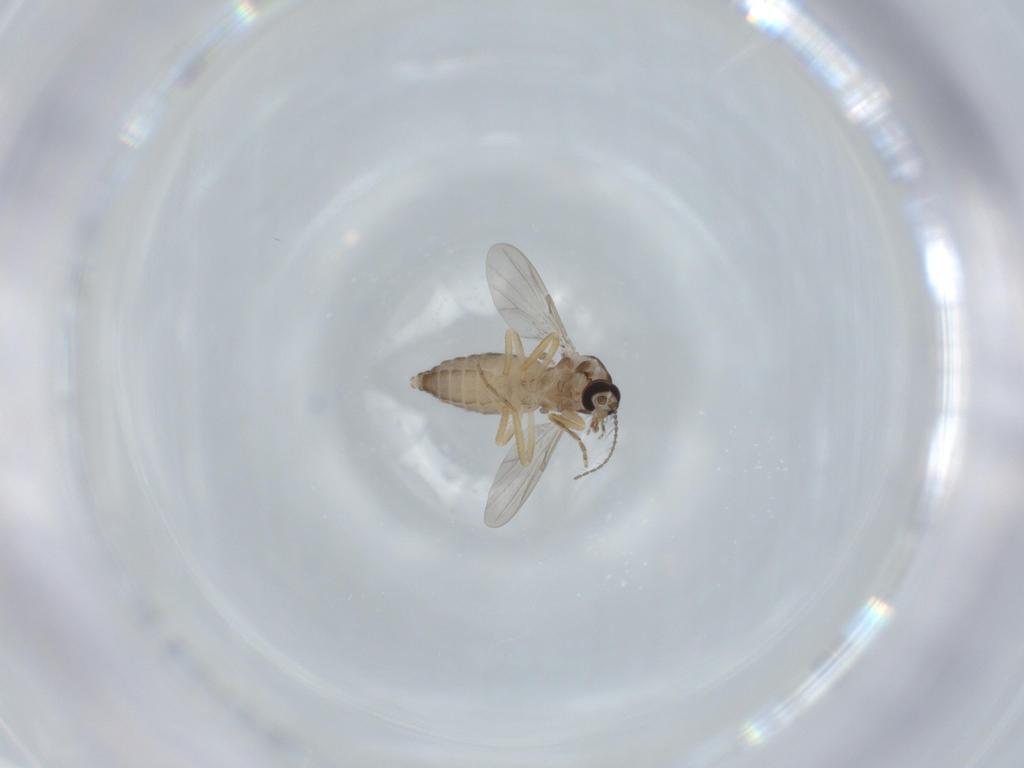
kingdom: Animalia
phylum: Arthropoda
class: Insecta
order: Diptera
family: Ceratopogonidae
